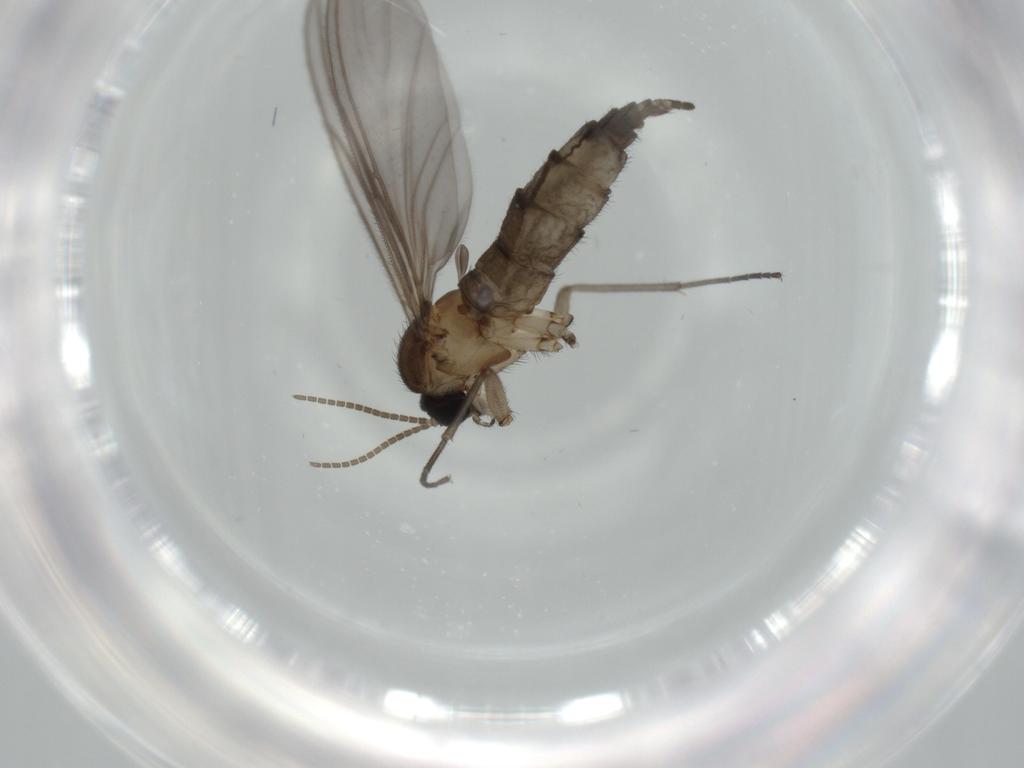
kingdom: Animalia
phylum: Arthropoda
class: Insecta
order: Diptera
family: Sciaridae
